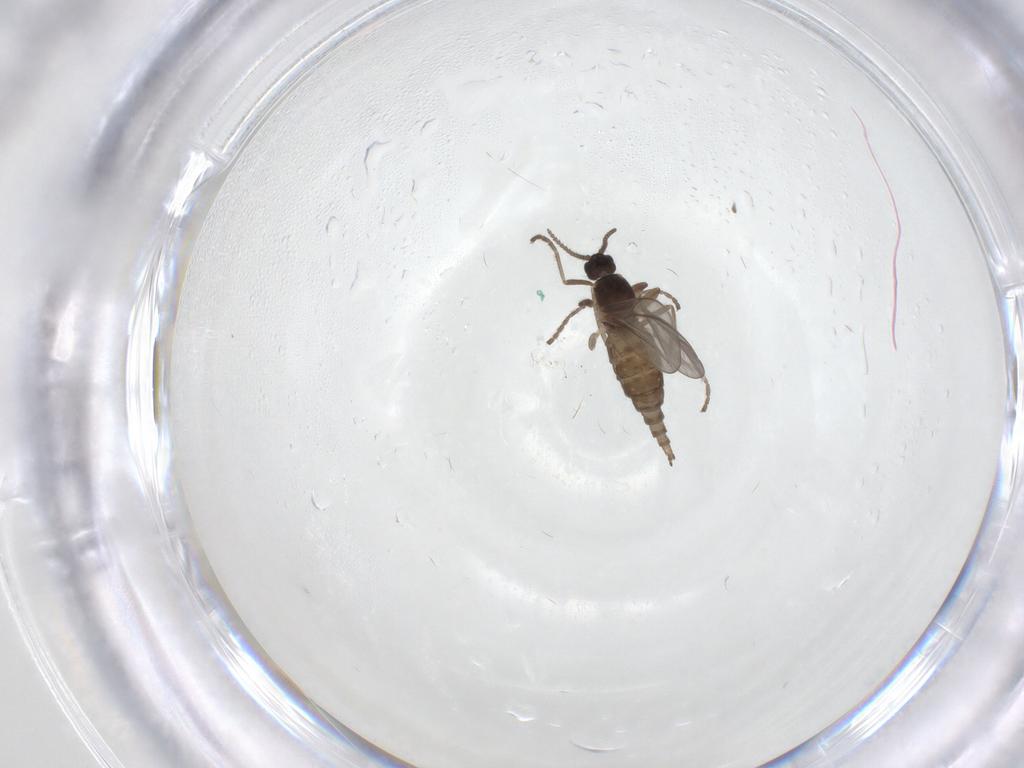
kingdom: Animalia
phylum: Arthropoda
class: Insecta
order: Diptera
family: Cecidomyiidae
